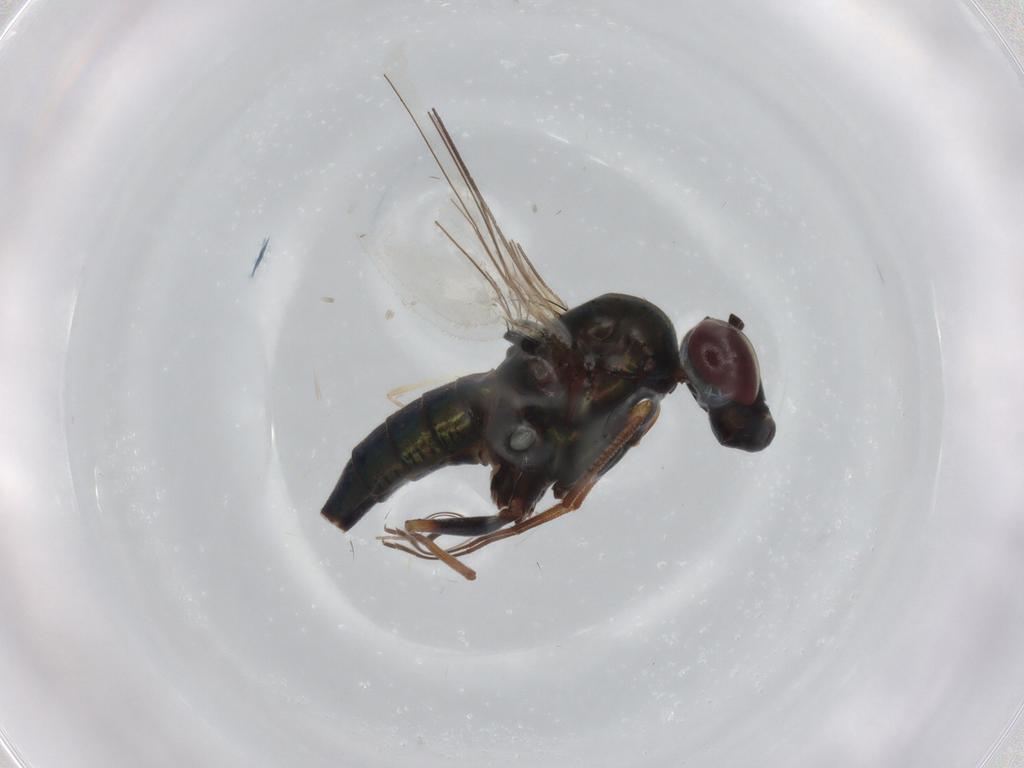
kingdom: Animalia
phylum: Arthropoda
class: Insecta
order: Diptera
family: Dolichopodidae
